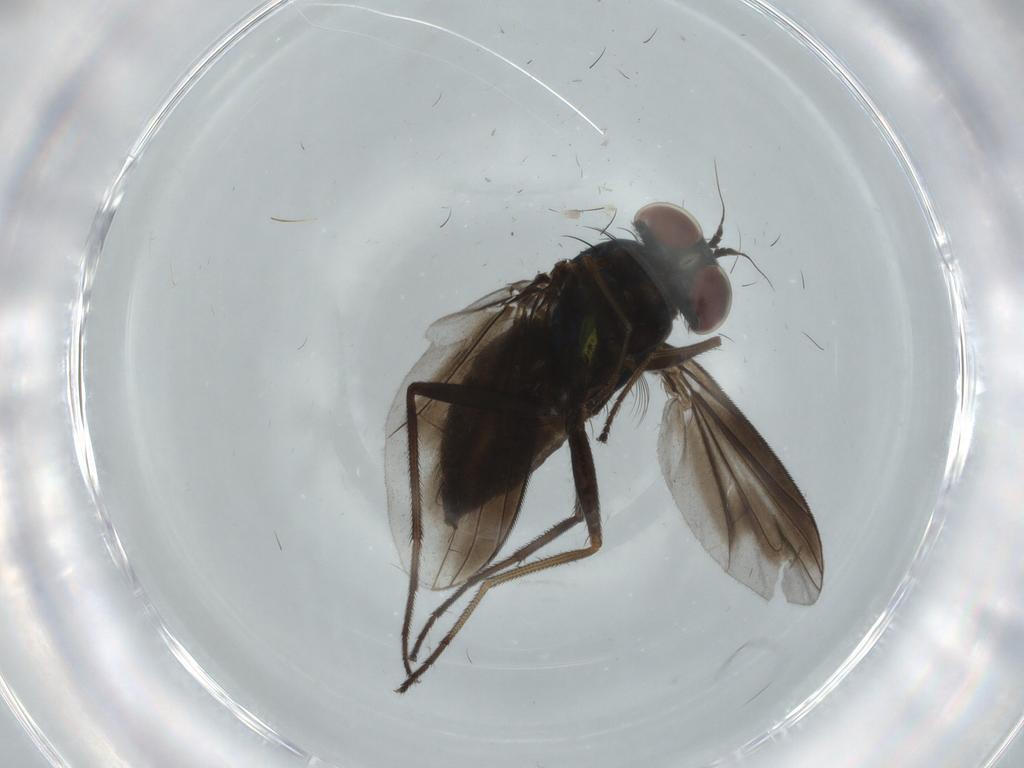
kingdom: Animalia
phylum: Arthropoda
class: Insecta
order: Diptera
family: Dolichopodidae
